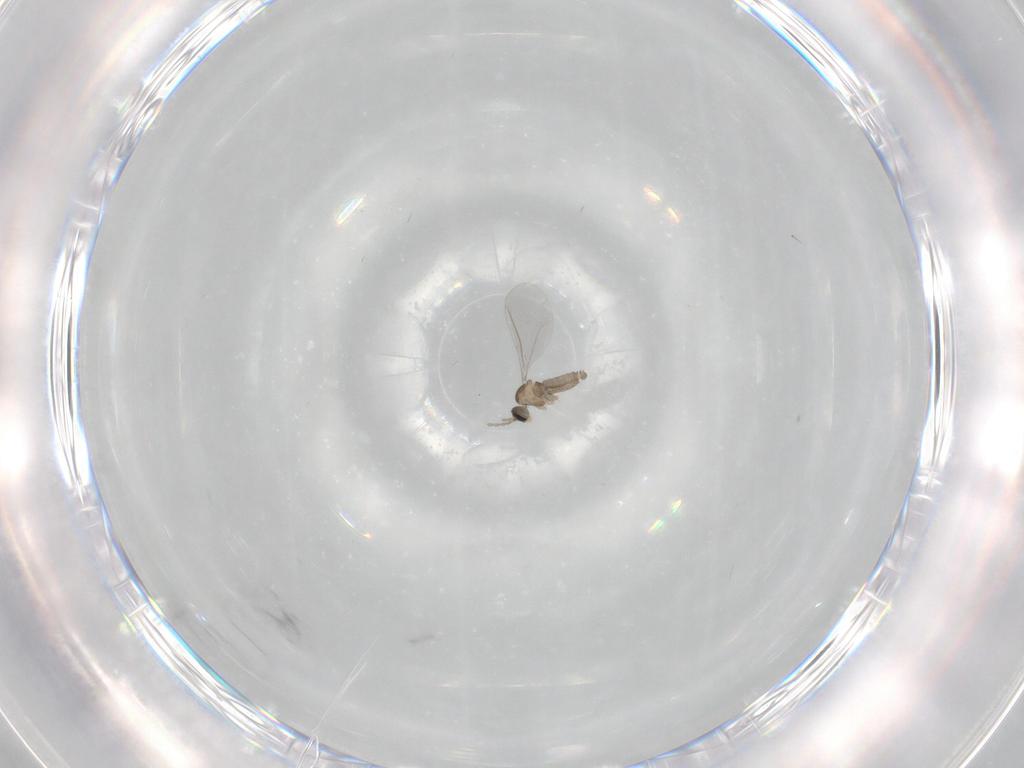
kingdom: Animalia
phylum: Arthropoda
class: Insecta
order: Diptera
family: Cecidomyiidae
